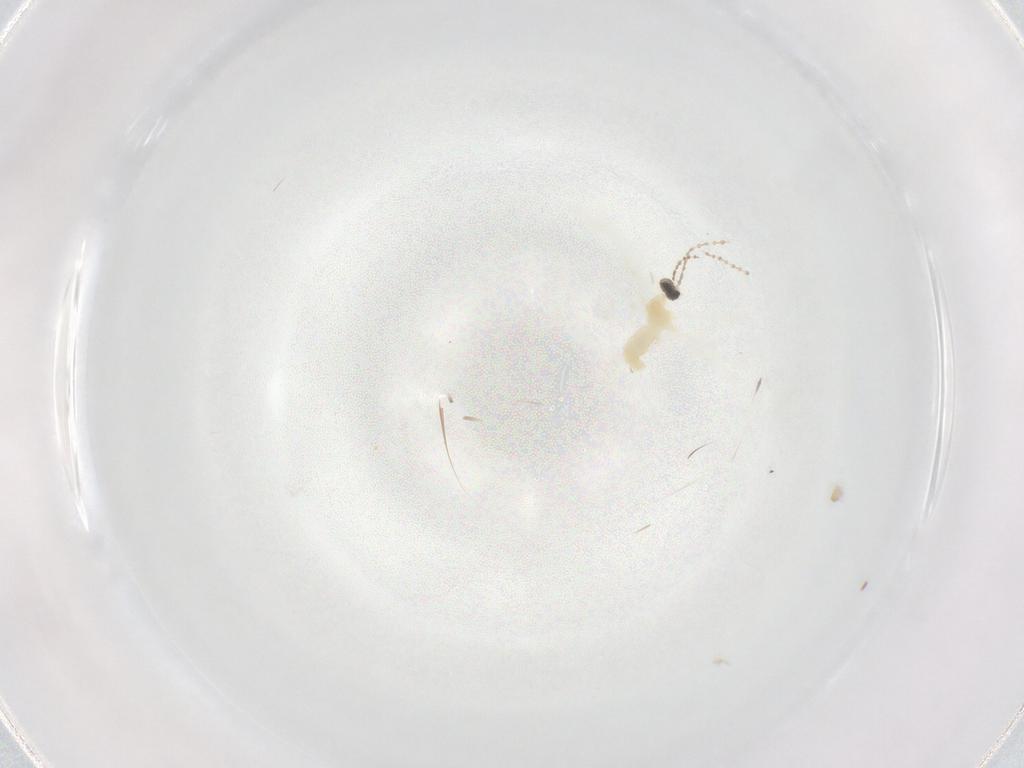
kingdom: Animalia
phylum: Arthropoda
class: Insecta
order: Diptera
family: Cecidomyiidae
